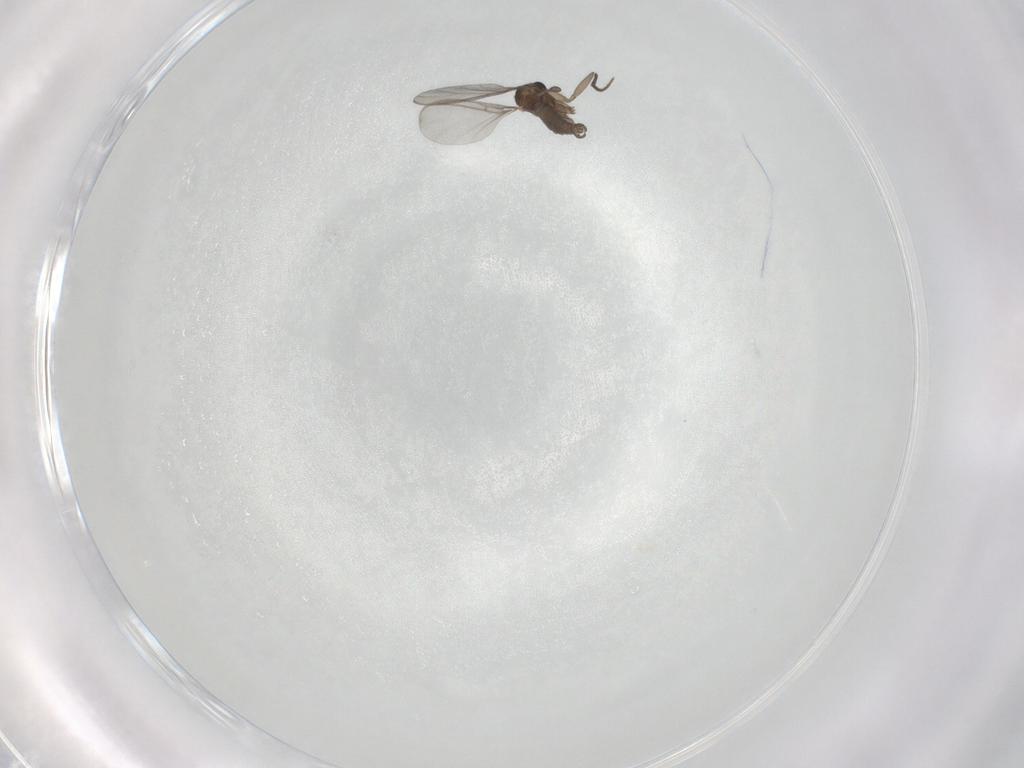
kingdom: Animalia
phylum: Arthropoda
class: Insecta
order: Diptera
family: Sciaridae
